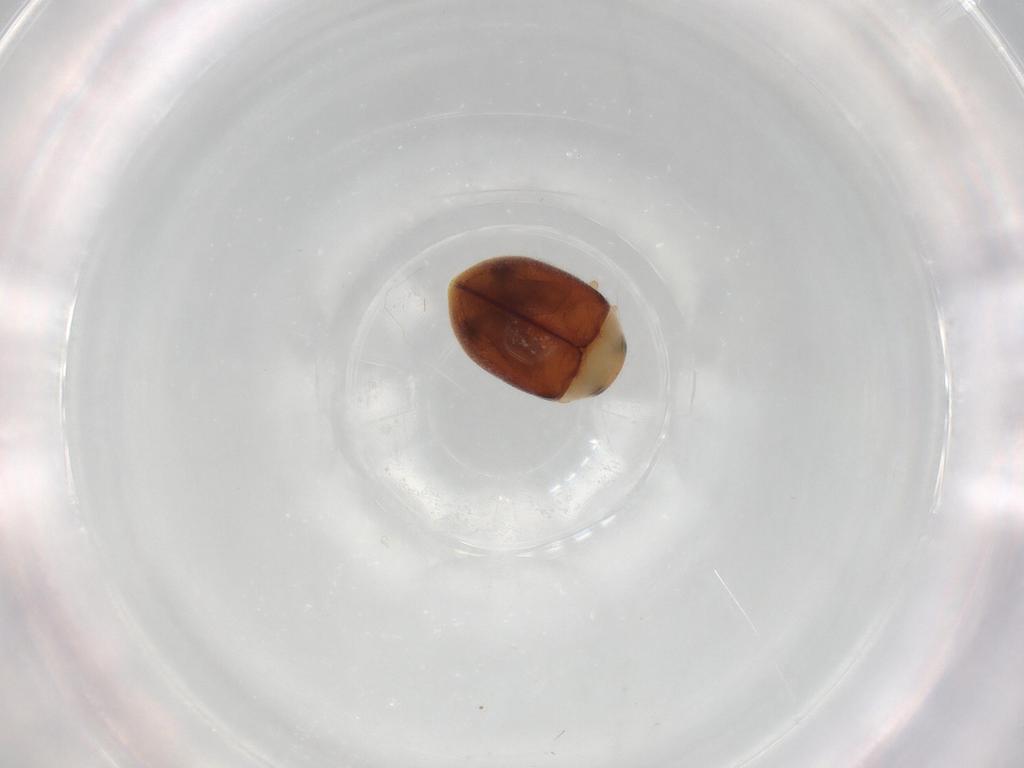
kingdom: Animalia
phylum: Arthropoda
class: Insecta
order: Coleoptera
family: Coccinellidae
